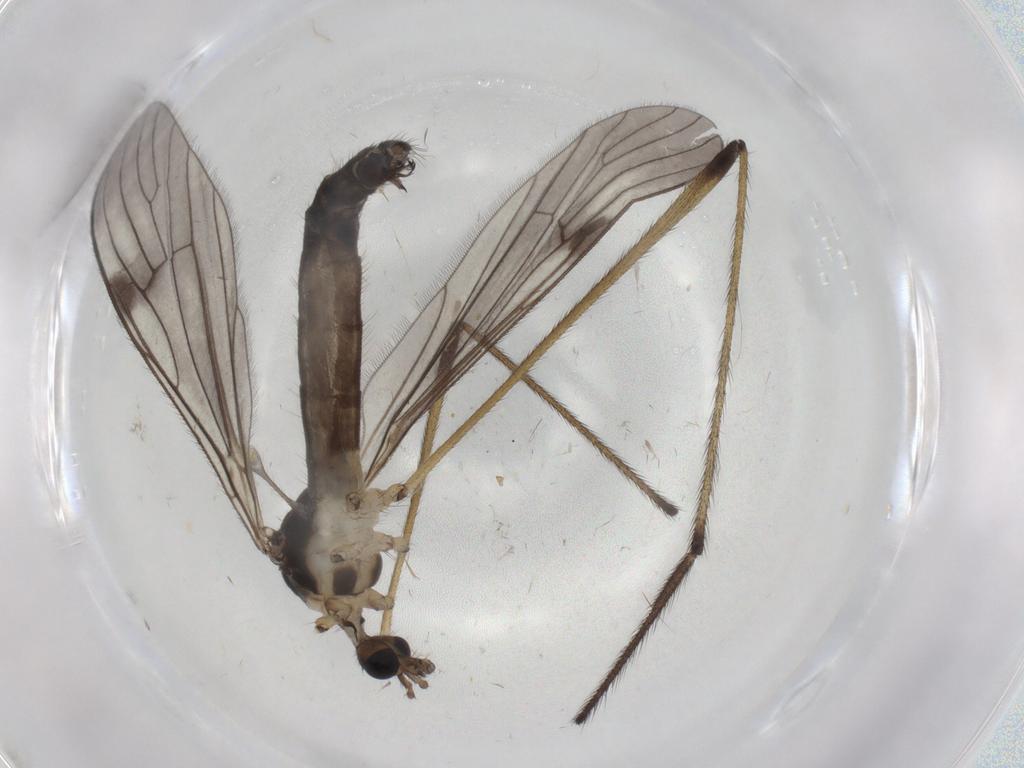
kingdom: Animalia
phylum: Arthropoda
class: Insecta
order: Diptera
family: Limoniidae
